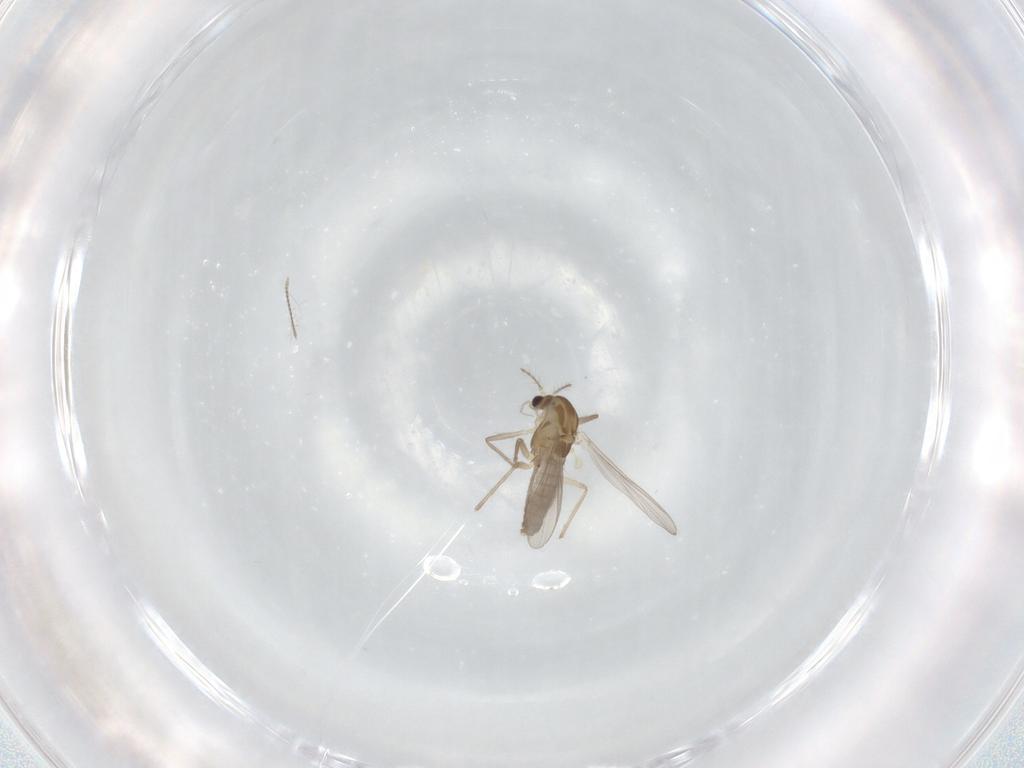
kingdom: Animalia
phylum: Arthropoda
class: Insecta
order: Diptera
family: Chironomidae
